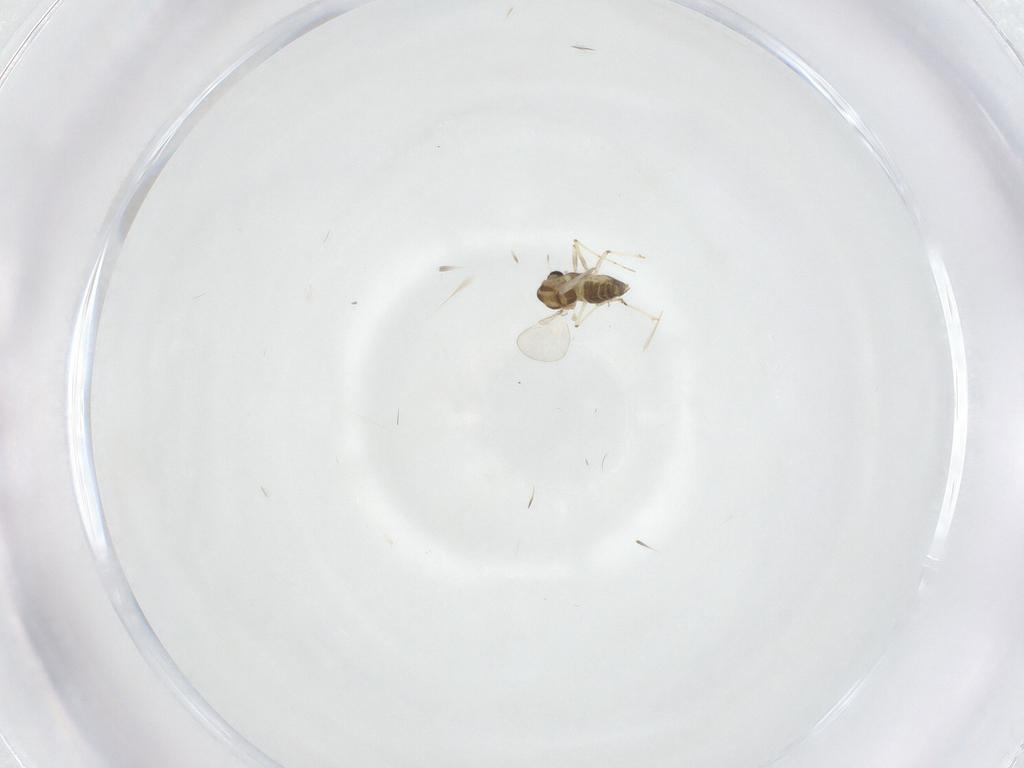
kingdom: Animalia
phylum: Arthropoda
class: Insecta
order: Diptera
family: Chironomidae
